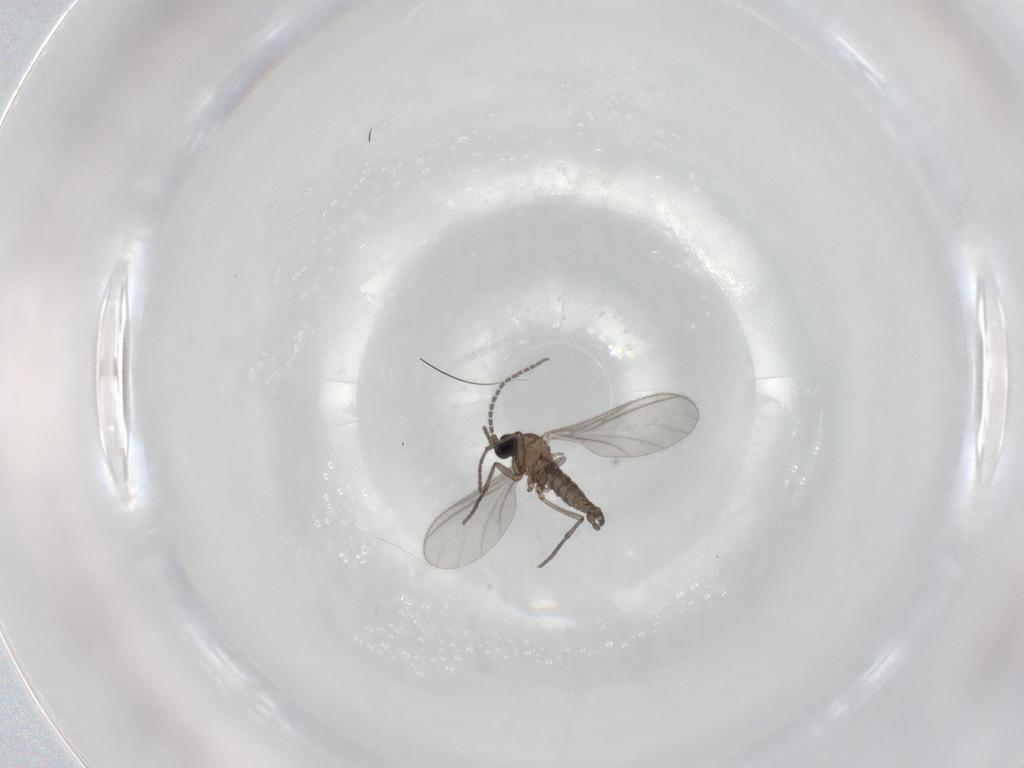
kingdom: Animalia
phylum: Arthropoda
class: Insecta
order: Diptera
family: Sciaridae
